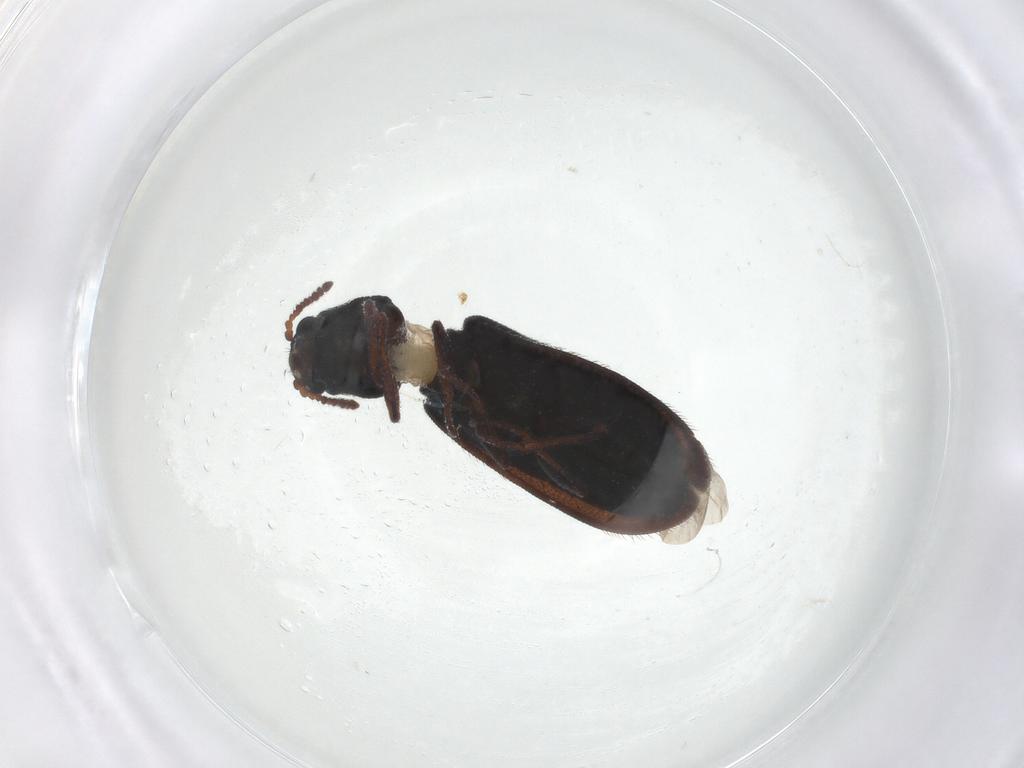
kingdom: Animalia
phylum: Arthropoda
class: Insecta
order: Coleoptera
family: Melyridae
